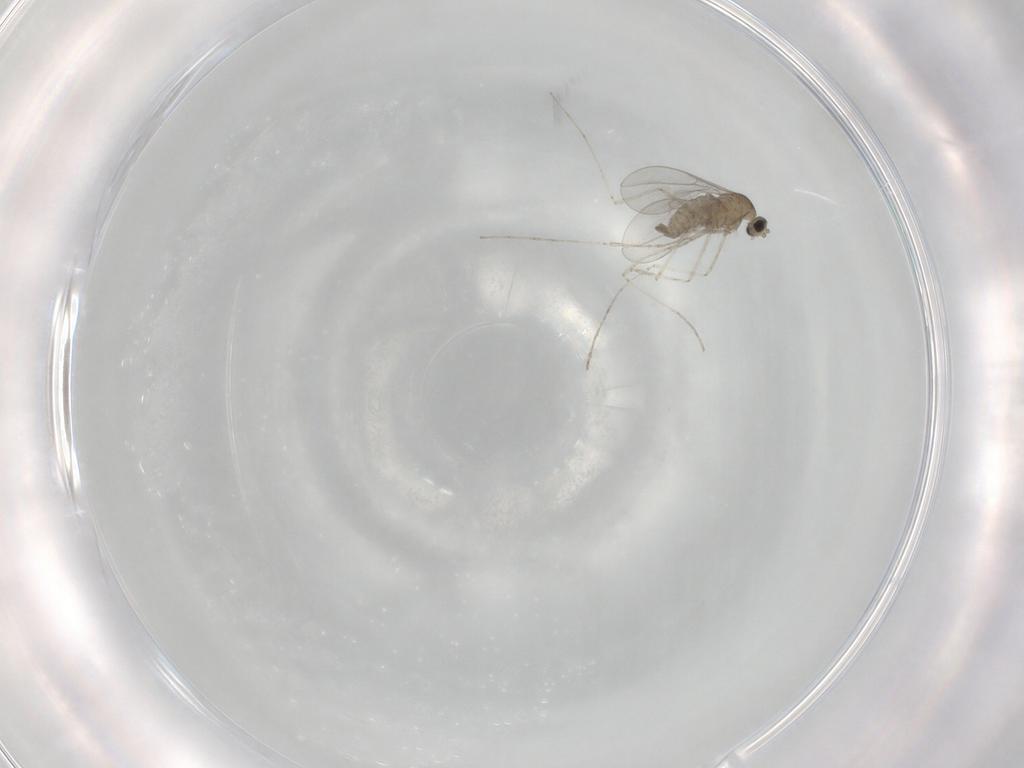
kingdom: Animalia
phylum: Arthropoda
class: Insecta
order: Diptera
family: Cecidomyiidae
